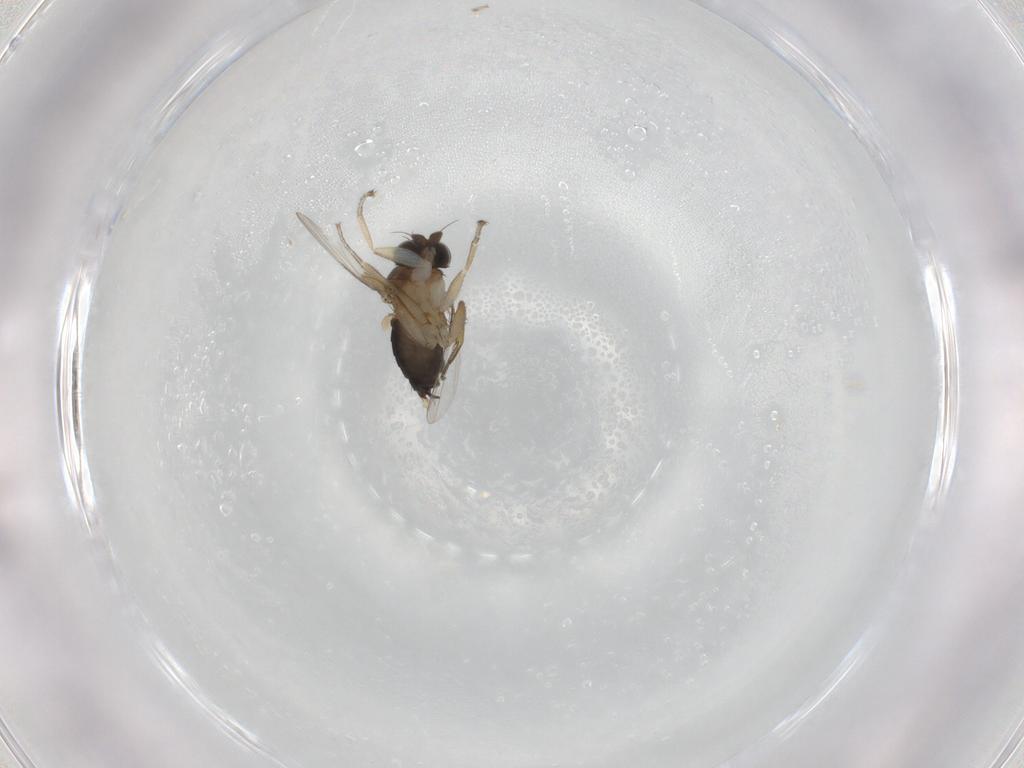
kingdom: Animalia
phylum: Arthropoda
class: Insecta
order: Diptera
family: Phoridae
